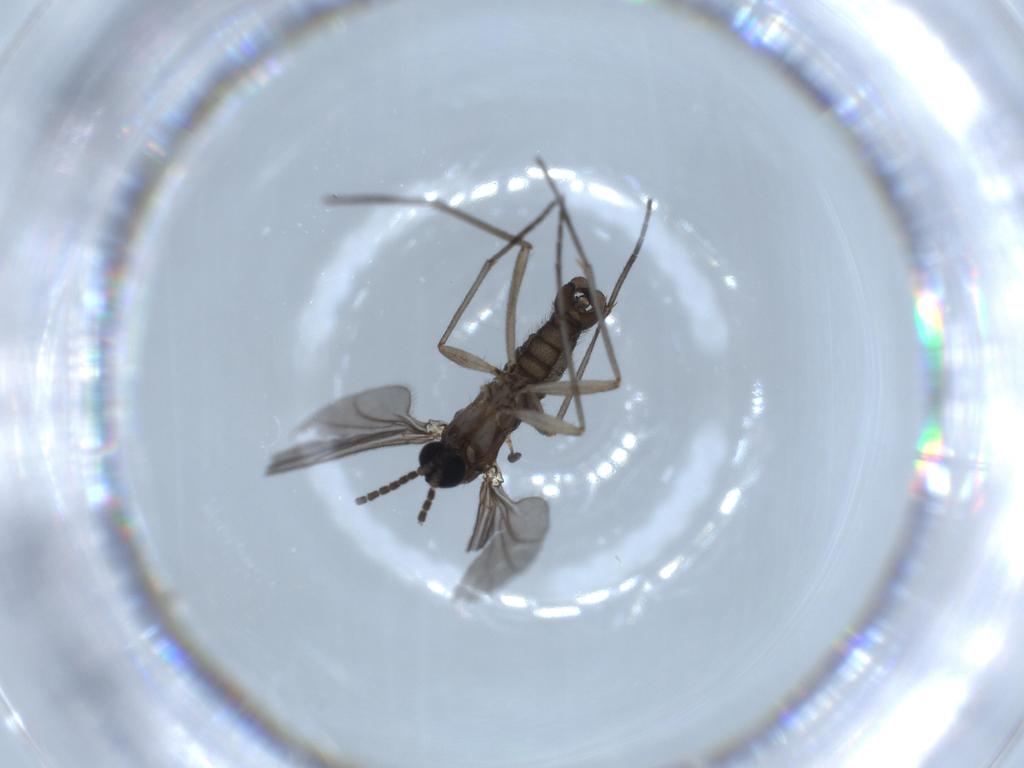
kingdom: Animalia
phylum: Arthropoda
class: Insecta
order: Diptera
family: Sciaridae
